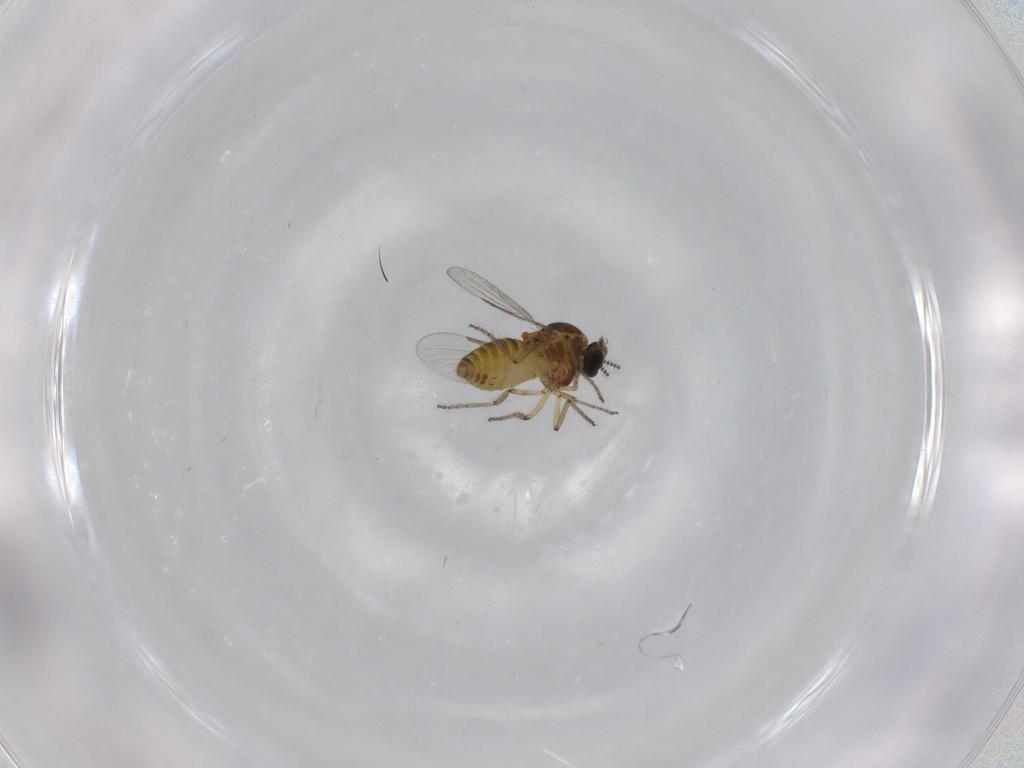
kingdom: Animalia
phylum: Arthropoda
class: Insecta
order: Diptera
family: Ceratopogonidae
